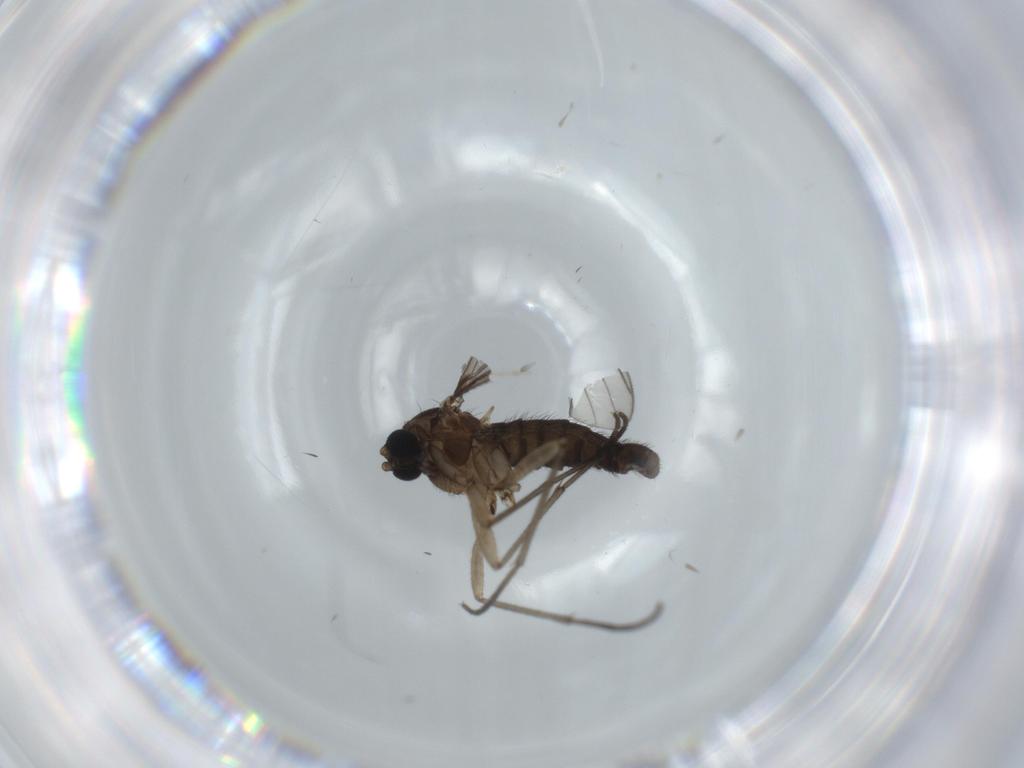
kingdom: Animalia
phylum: Arthropoda
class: Insecta
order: Diptera
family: Sciaridae
